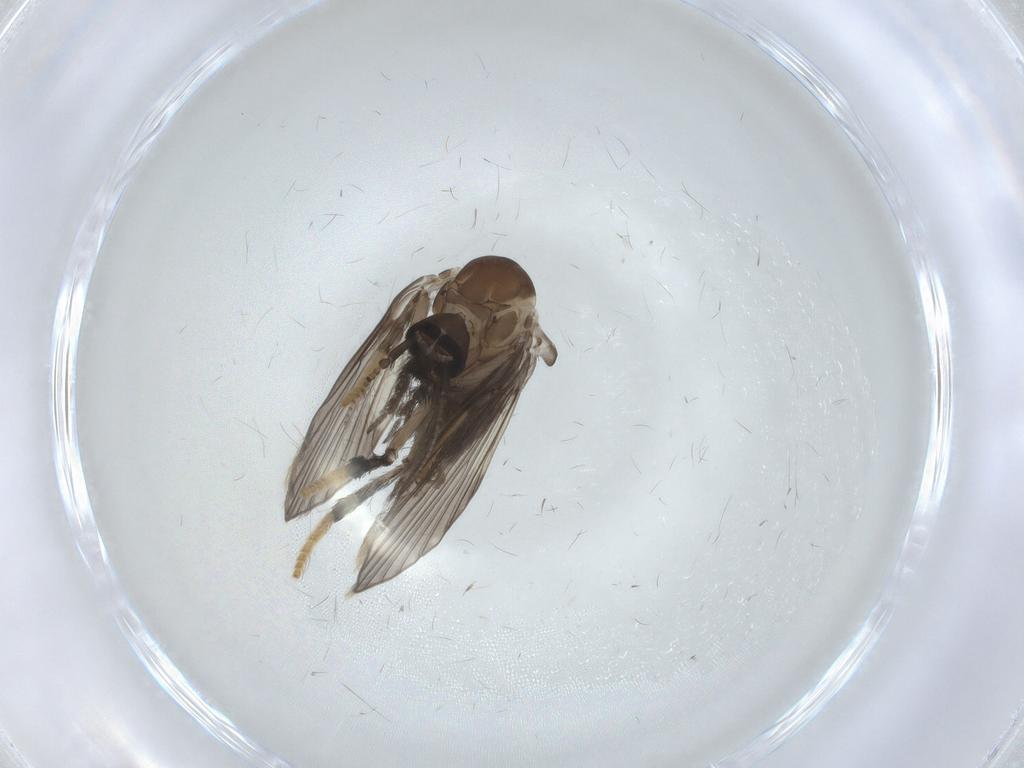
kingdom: Animalia
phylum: Arthropoda
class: Insecta
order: Diptera
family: Psychodidae
